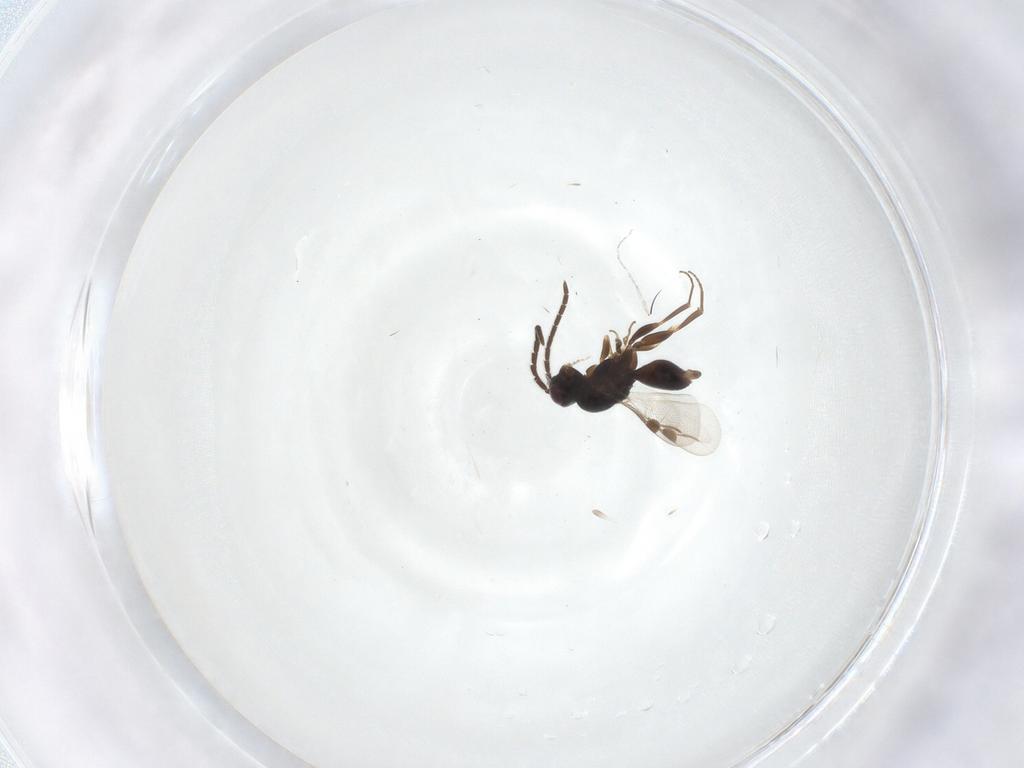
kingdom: Animalia
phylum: Arthropoda
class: Insecta
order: Hymenoptera
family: Megaspilidae
